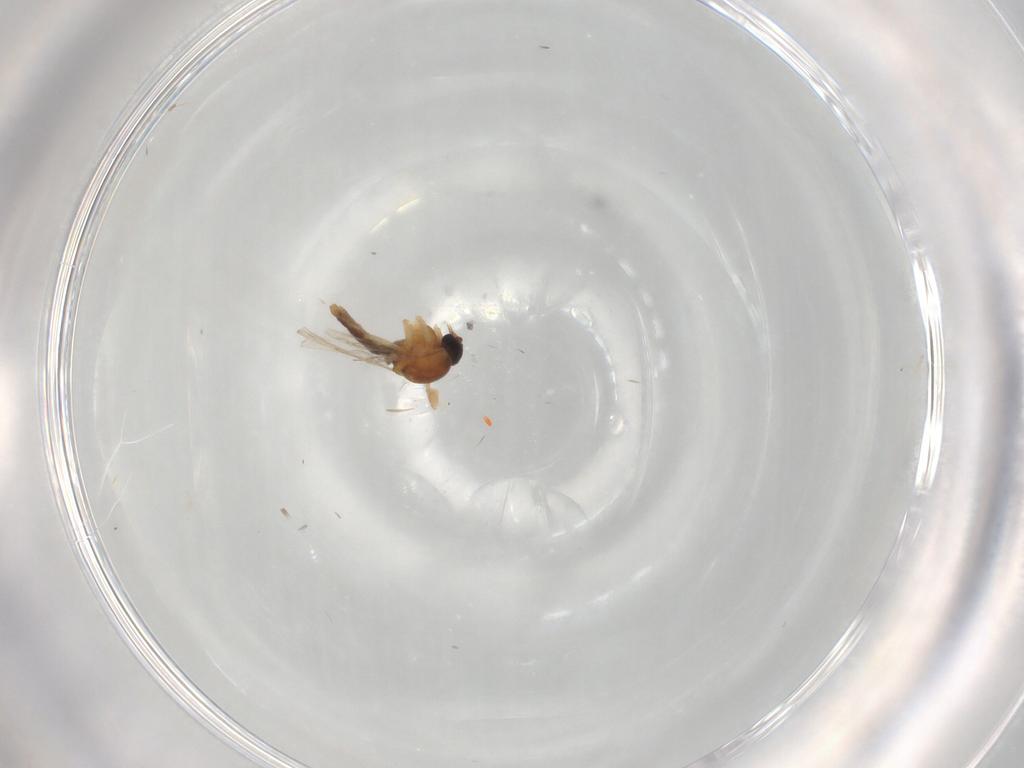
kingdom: Animalia
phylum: Arthropoda
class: Insecta
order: Diptera
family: Ceratopogonidae
